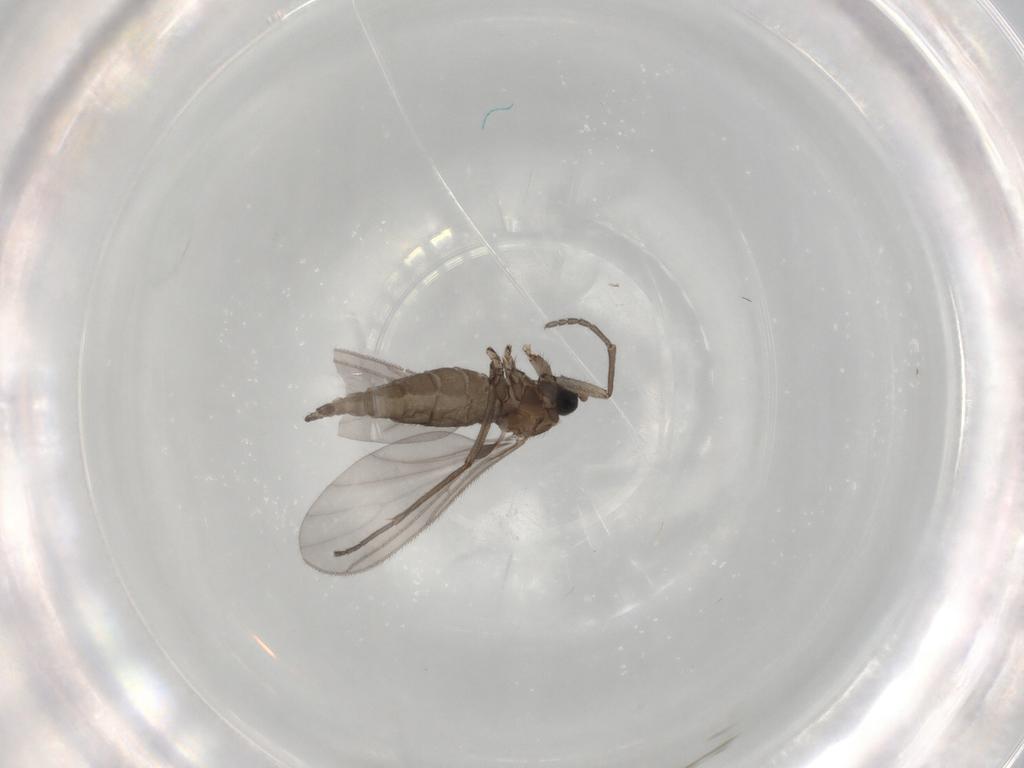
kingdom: Animalia
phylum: Arthropoda
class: Insecta
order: Diptera
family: Sciaridae
